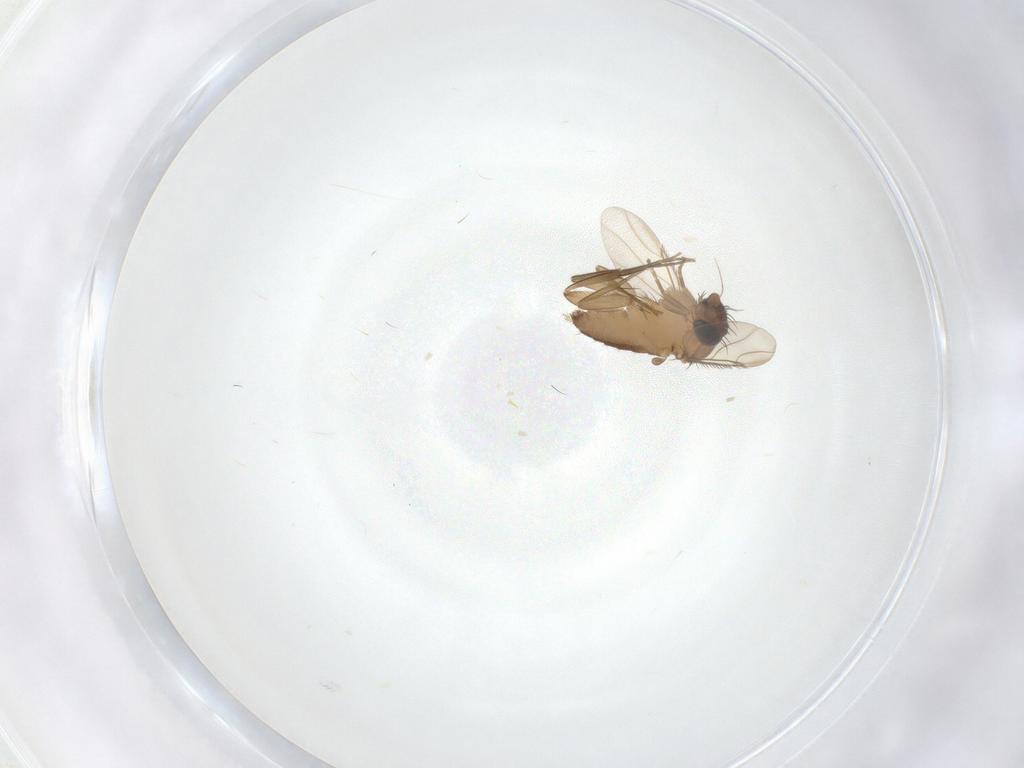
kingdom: Animalia
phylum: Arthropoda
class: Insecta
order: Diptera
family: Phoridae
